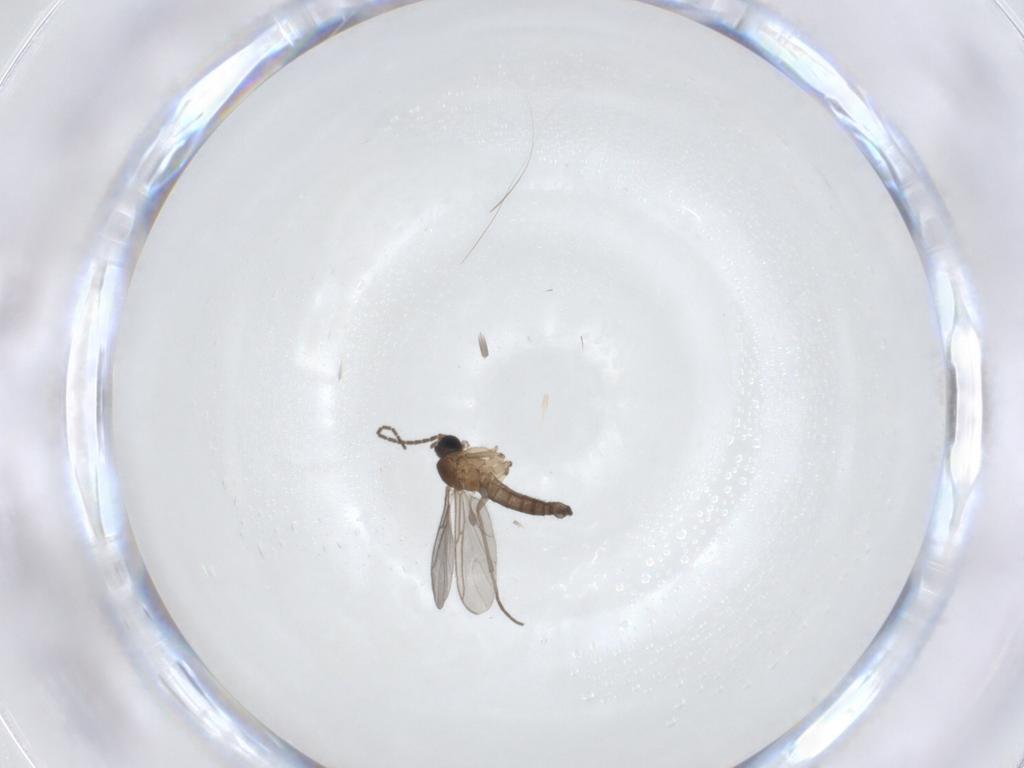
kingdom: Animalia
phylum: Arthropoda
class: Insecta
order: Diptera
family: Sciaridae
